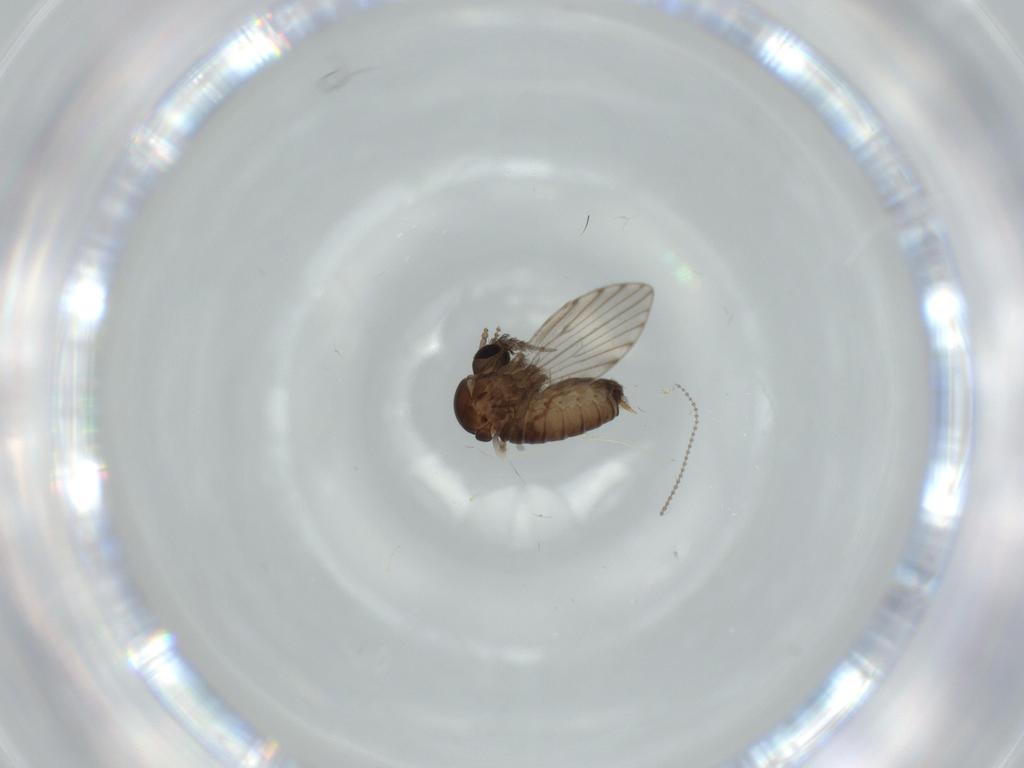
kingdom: Animalia
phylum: Arthropoda
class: Insecta
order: Diptera
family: Psychodidae
